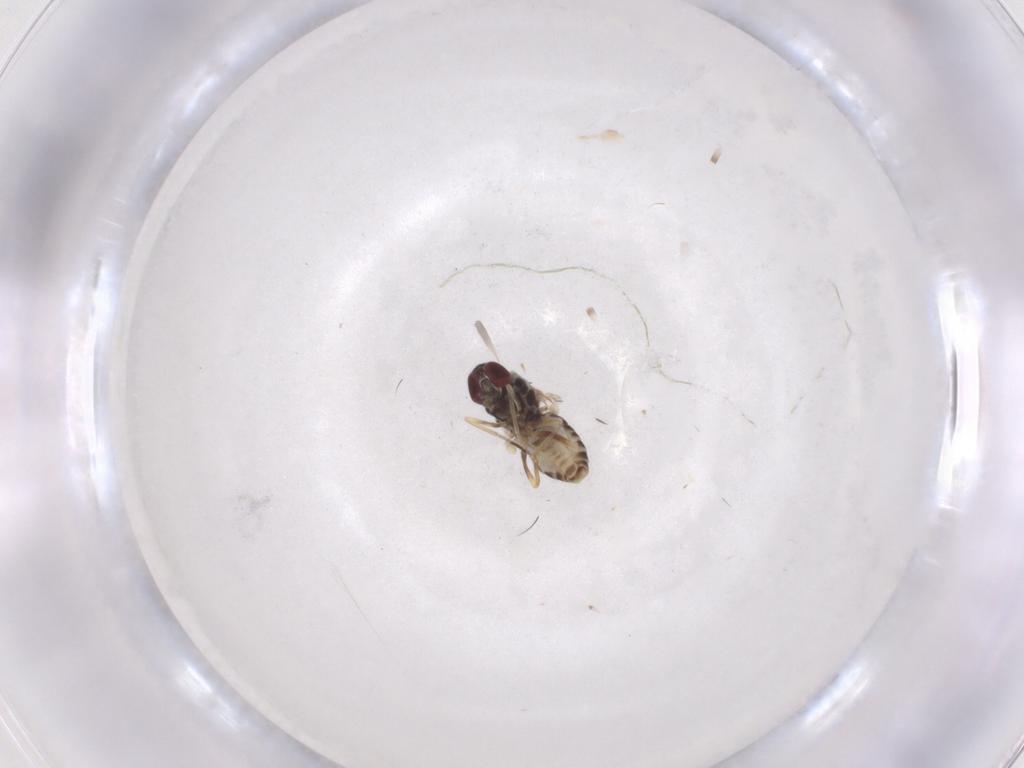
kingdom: Animalia
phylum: Arthropoda
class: Insecta
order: Diptera
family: Bombyliidae
